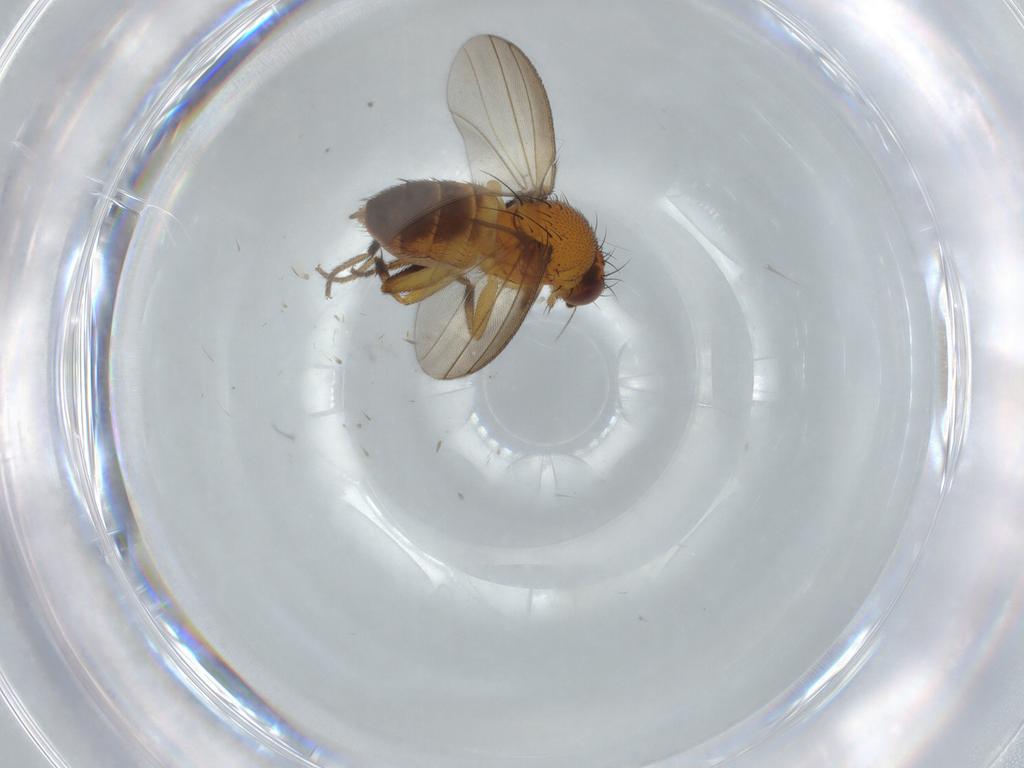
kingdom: Animalia
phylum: Arthropoda
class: Insecta
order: Diptera
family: Milichiidae
